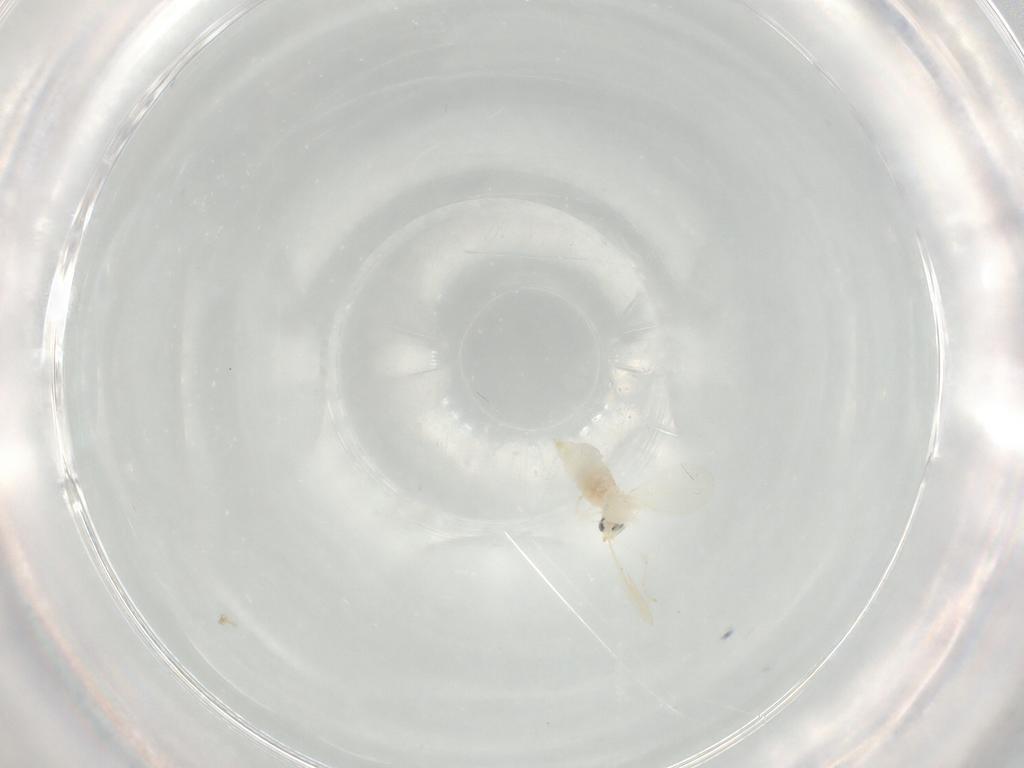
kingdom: Animalia
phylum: Arthropoda
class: Insecta
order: Diptera
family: Cecidomyiidae
